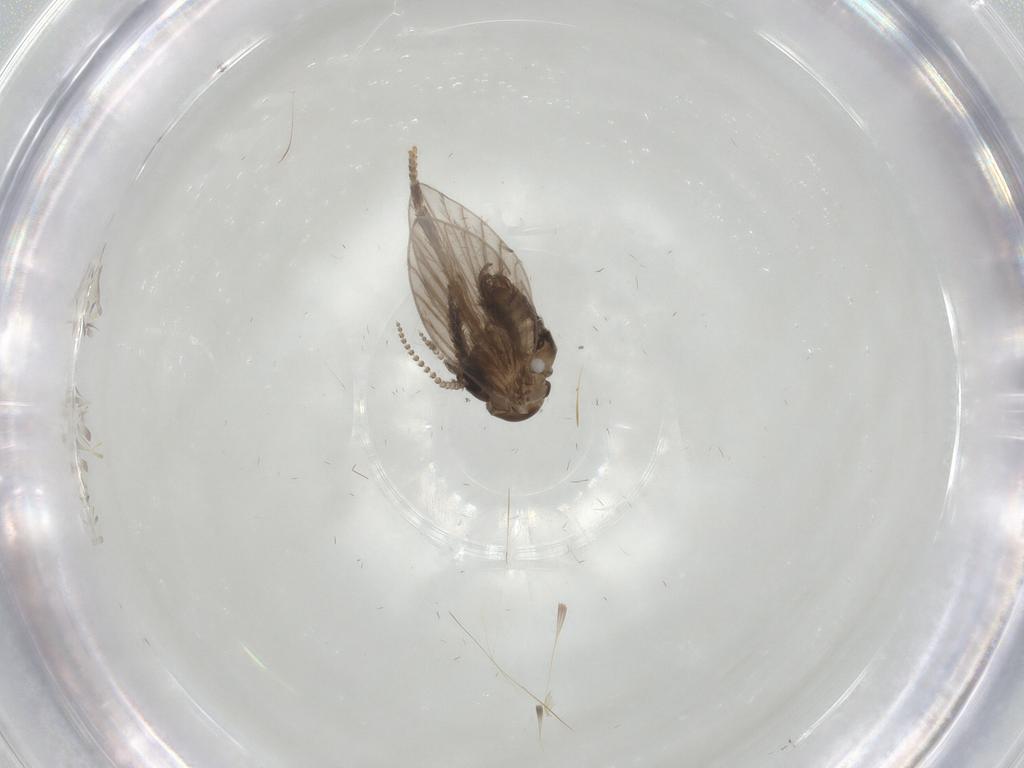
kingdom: Animalia
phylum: Arthropoda
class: Insecta
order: Diptera
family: Psychodidae
